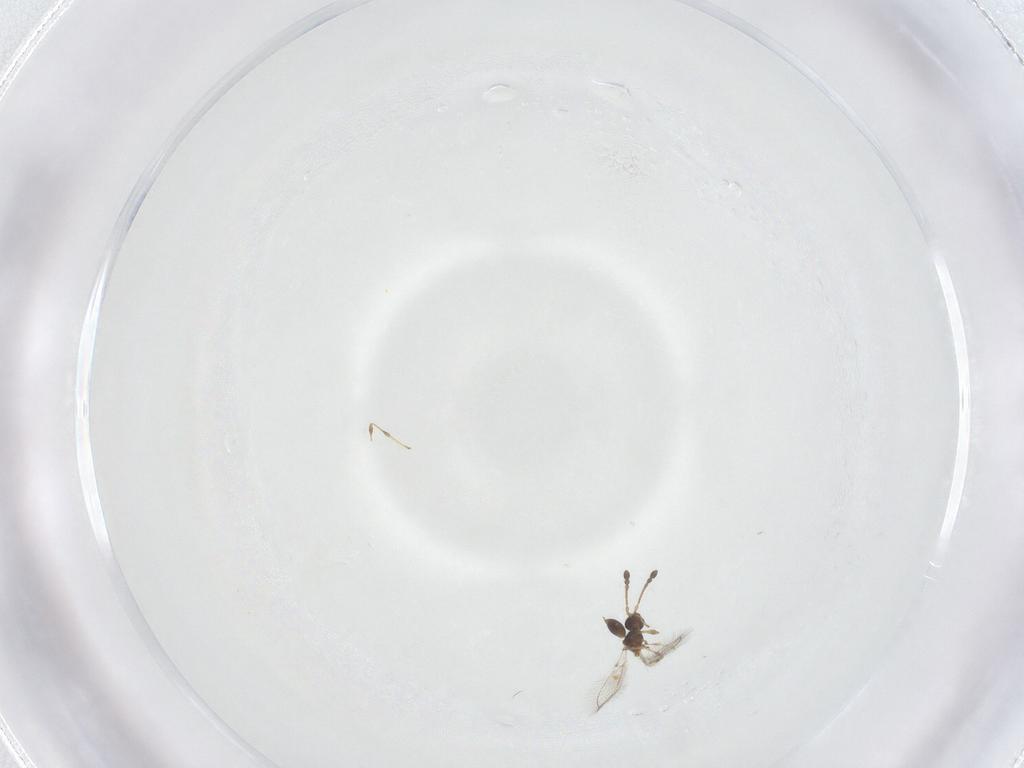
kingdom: Animalia
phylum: Arthropoda
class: Insecta
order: Hymenoptera
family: Diapriidae
